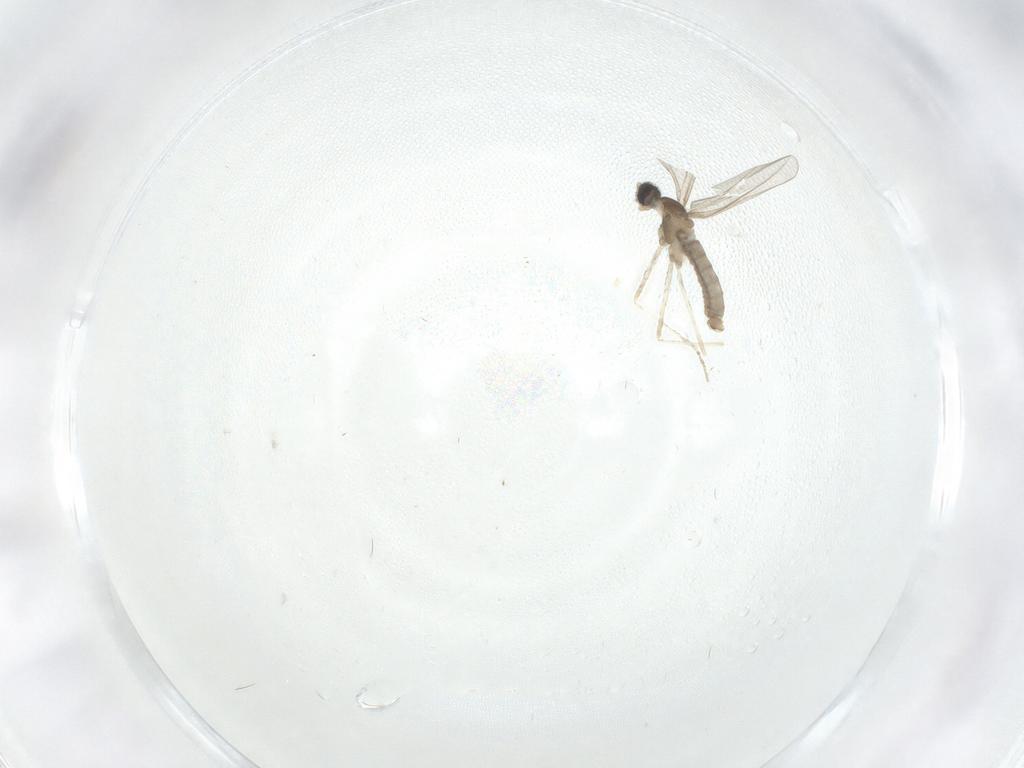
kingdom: Animalia
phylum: Arthropoda
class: Insecta
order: Diptera
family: Cecidomyiidae
